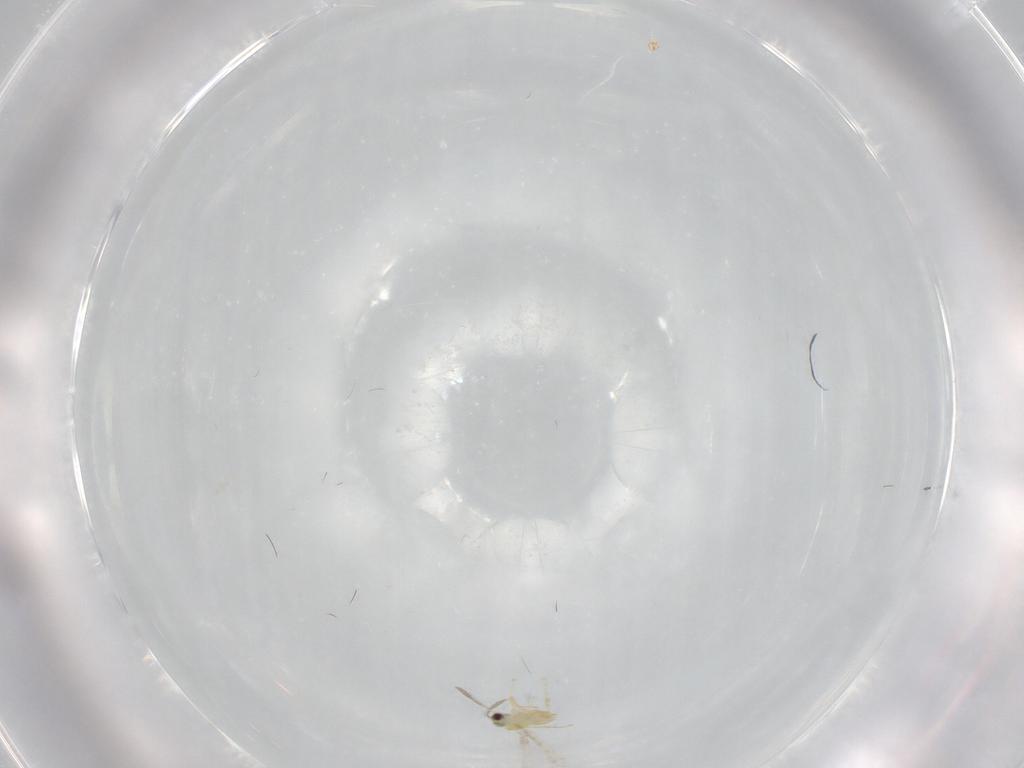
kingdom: Animalia
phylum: Arthropoda
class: Insecta
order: Hymenoptera
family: Mymaridae
